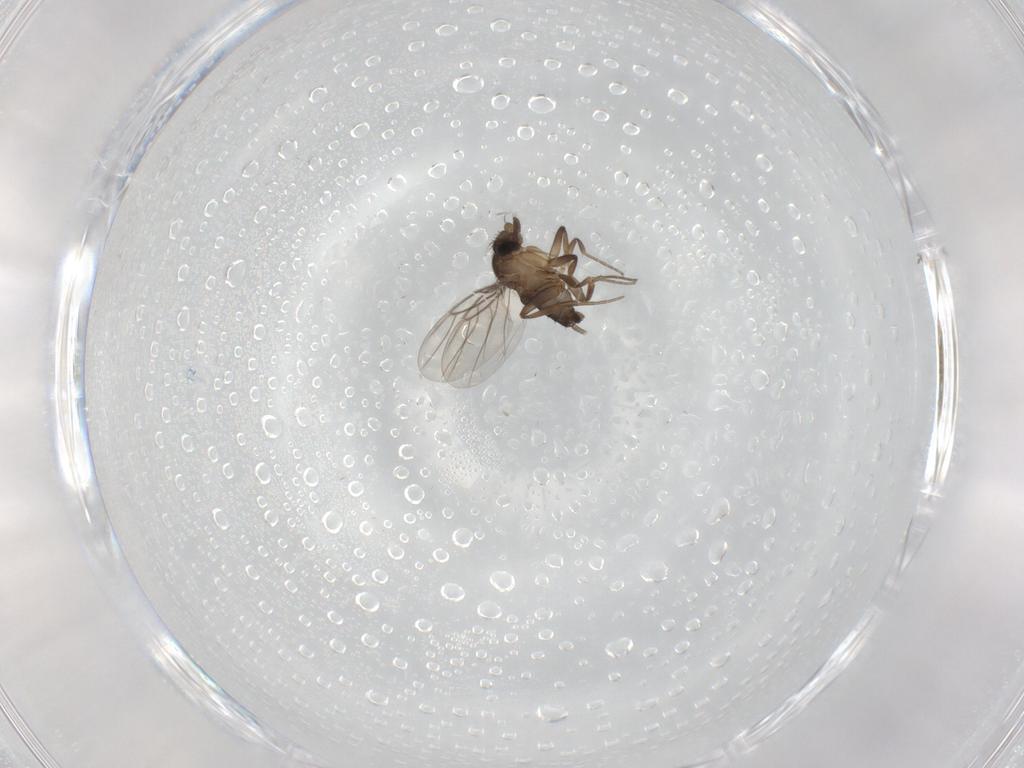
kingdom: Animalia
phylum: Arthropoda
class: Insecta
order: Diptera
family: Phoridae
